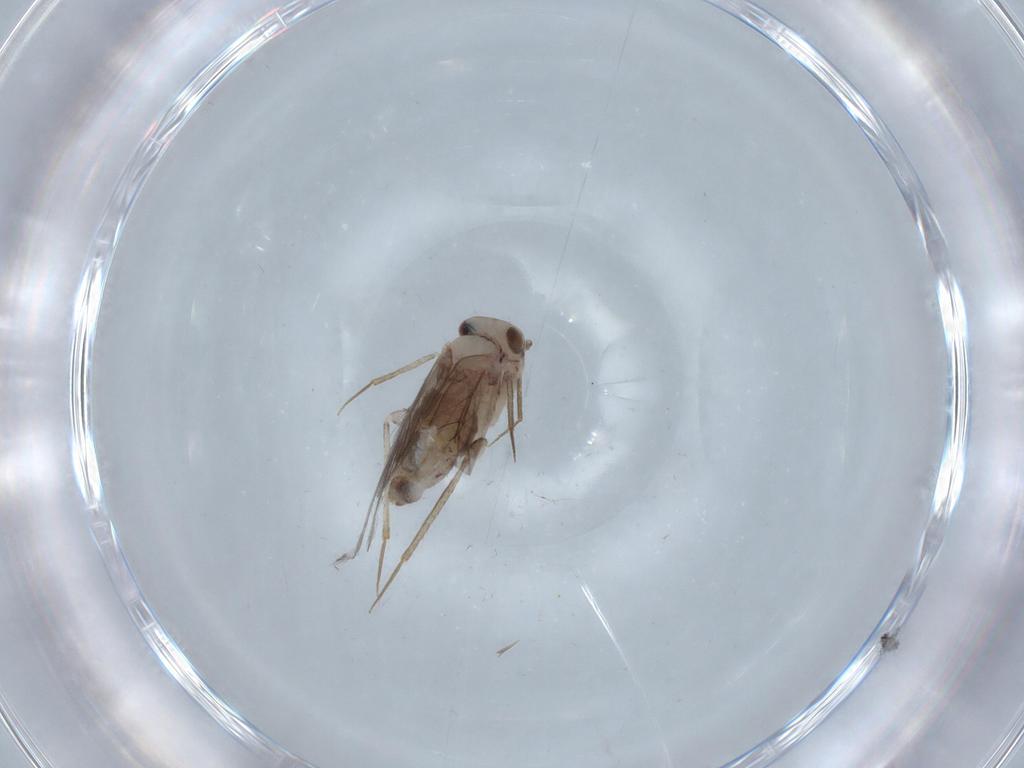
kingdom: Animalia
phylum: Arthropoda
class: Insecta
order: Psocodea
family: Lepidopsocidae
